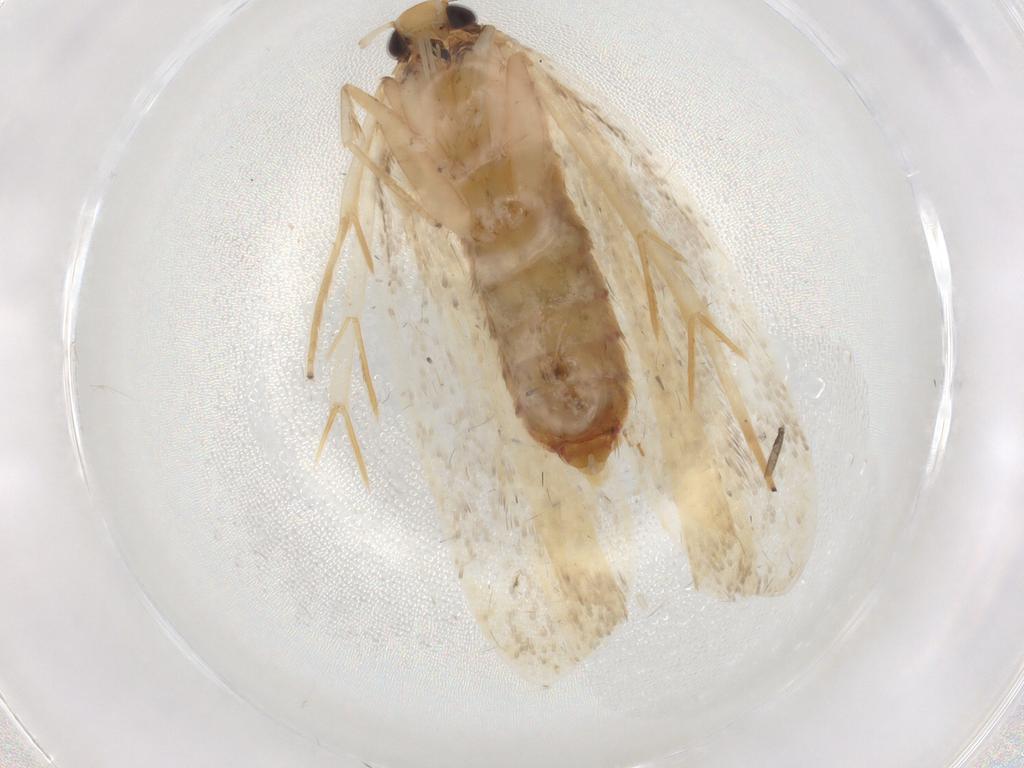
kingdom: Animalia
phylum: Arthropoda
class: Insecta
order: Lepidoptera
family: Lecithoceridae
